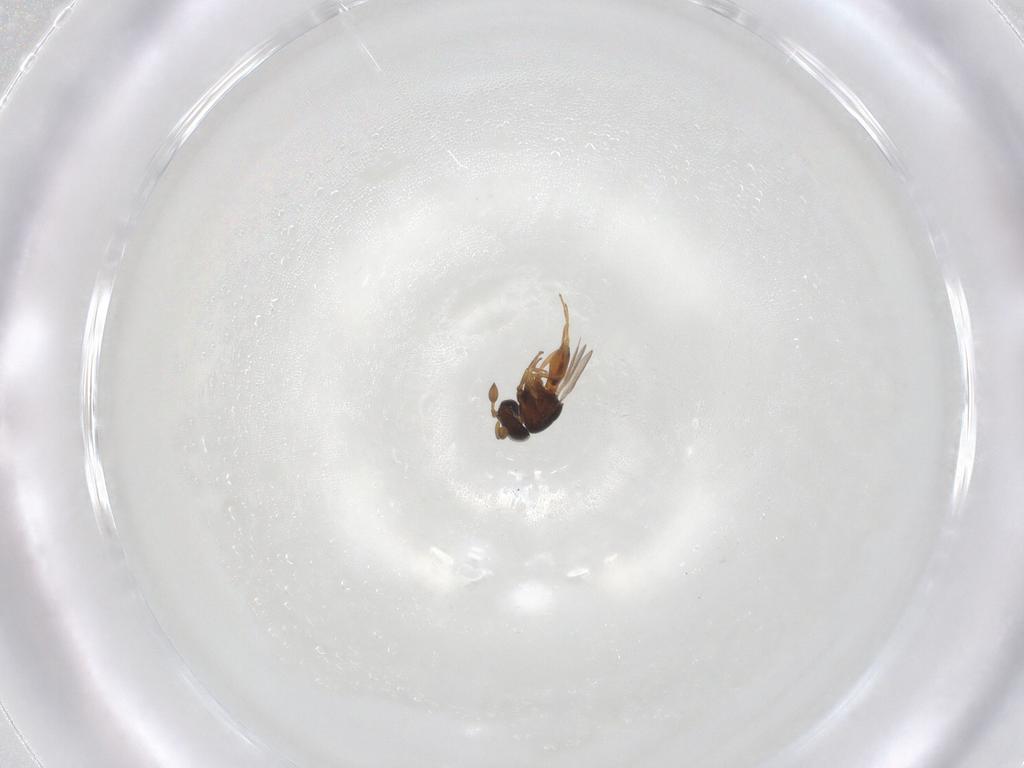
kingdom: Animalia
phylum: Arthropoda
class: Insecta
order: Hymenoptera
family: Scelionidae
